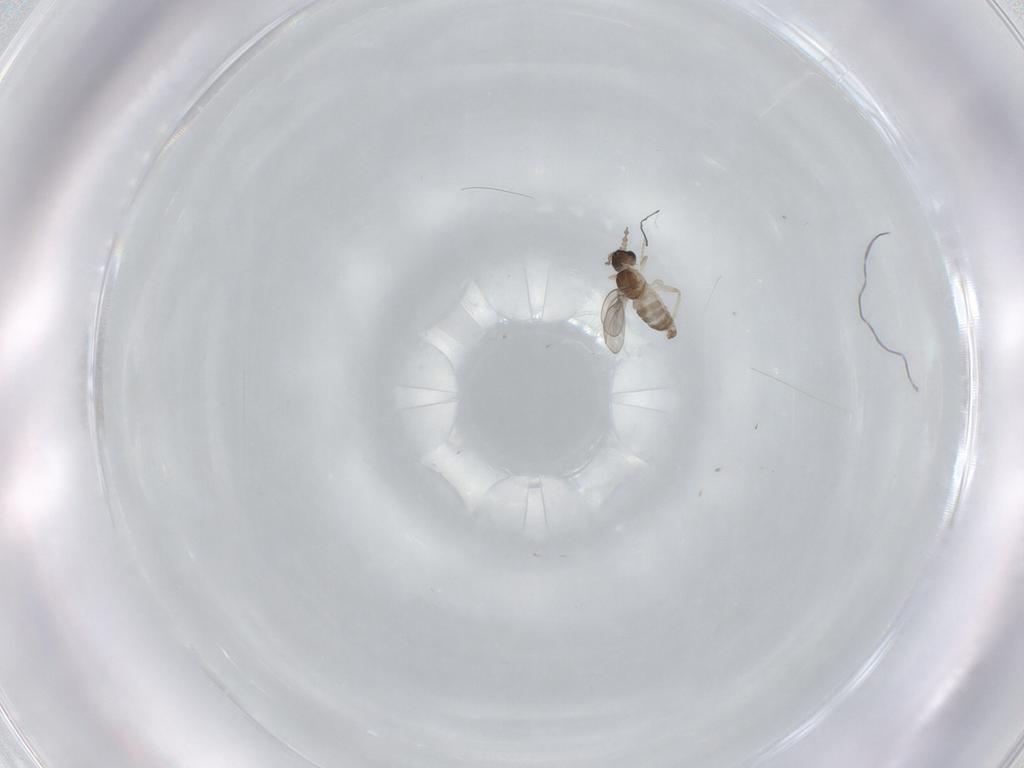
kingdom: Animalia
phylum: Arthropoda
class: Insecta
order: Diptera
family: Cecidomyiidae
